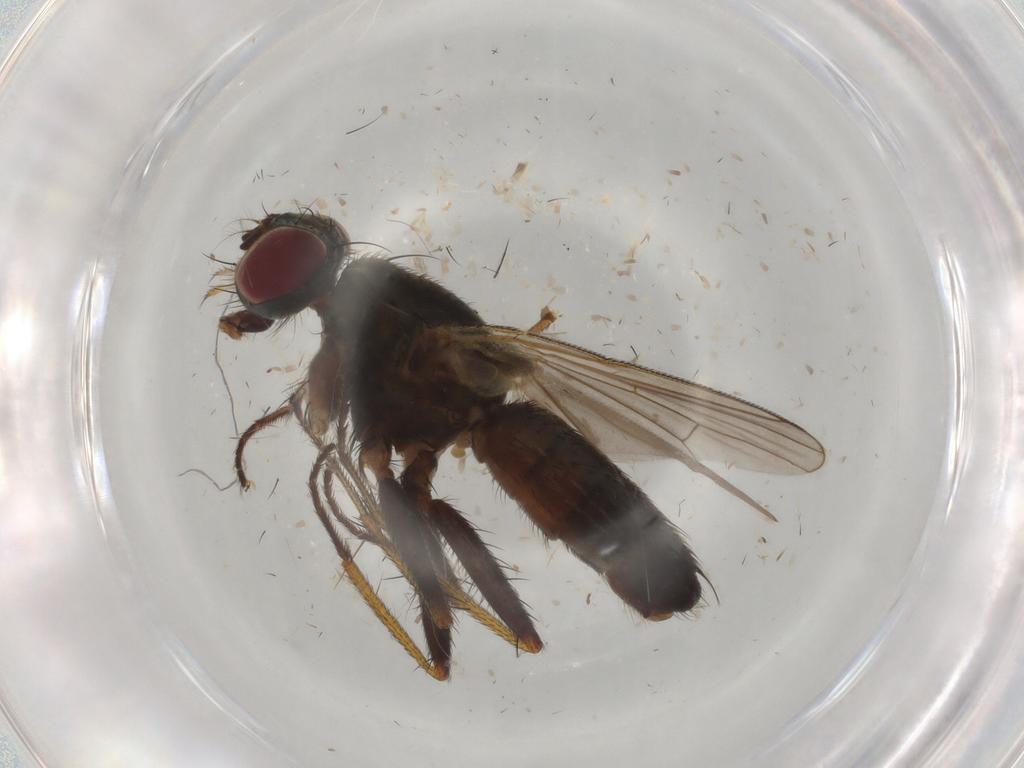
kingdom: Animalia
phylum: Arthropoda
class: Insecta
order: Diptera
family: Muscidae
